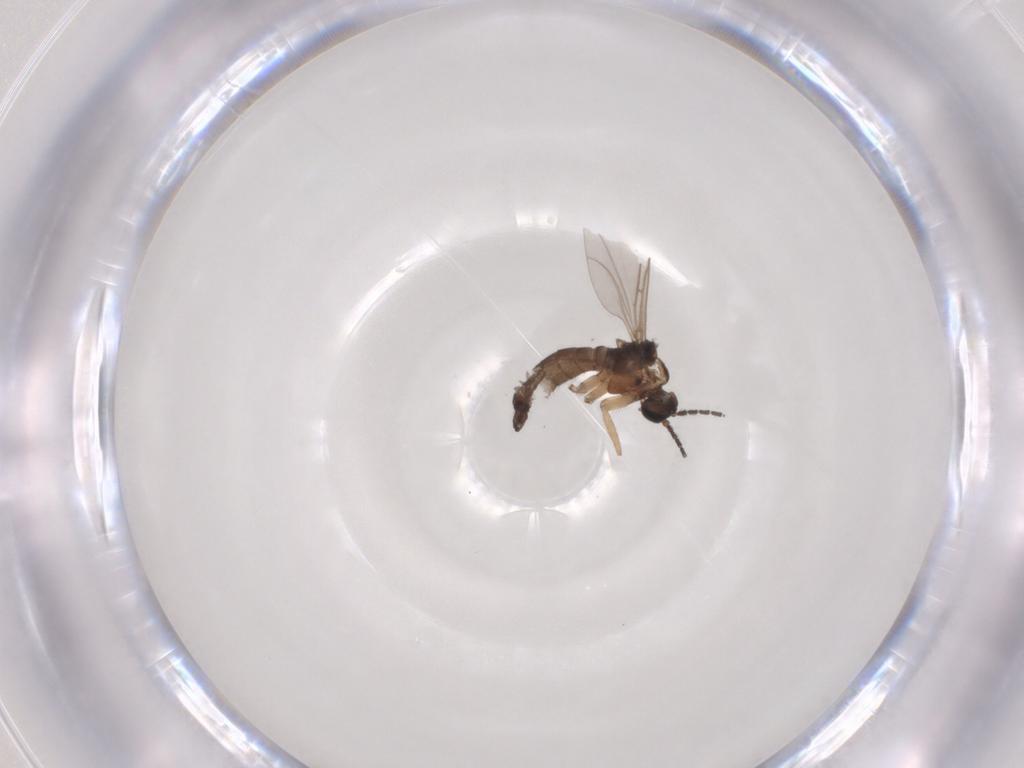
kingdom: Animalia
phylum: Arthropoda
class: Insecta
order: Diptera
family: Sciaridae
